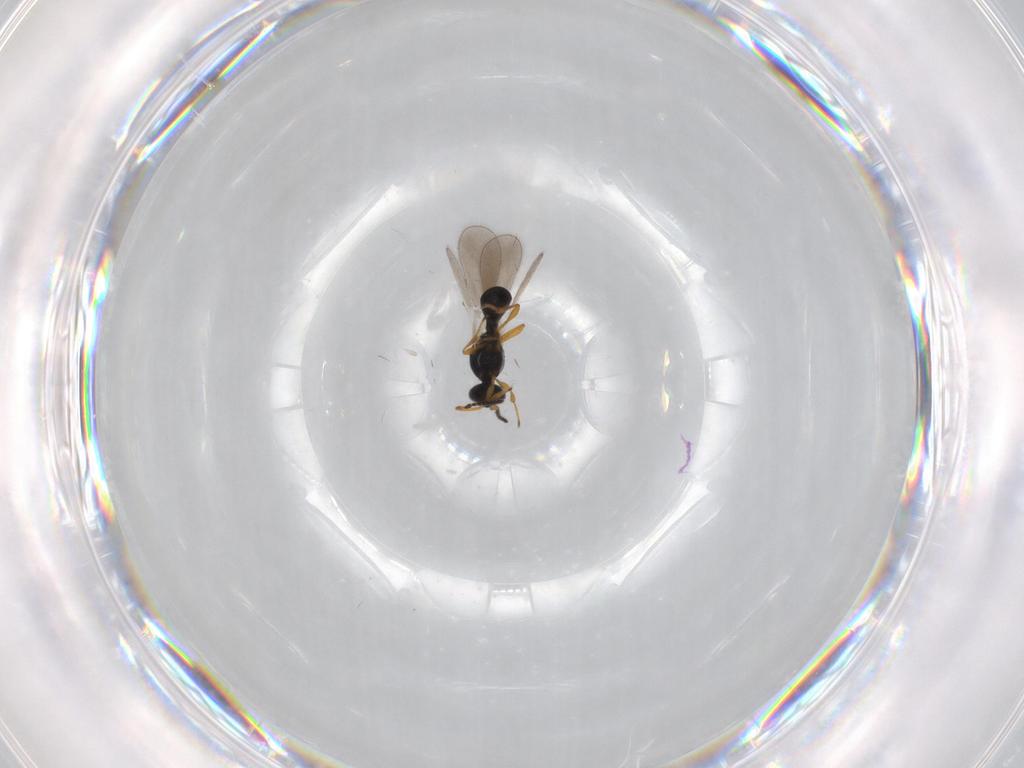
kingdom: Animalia
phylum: Arthropoda
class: Insecta
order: Hymenoptera
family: Platygastridae
